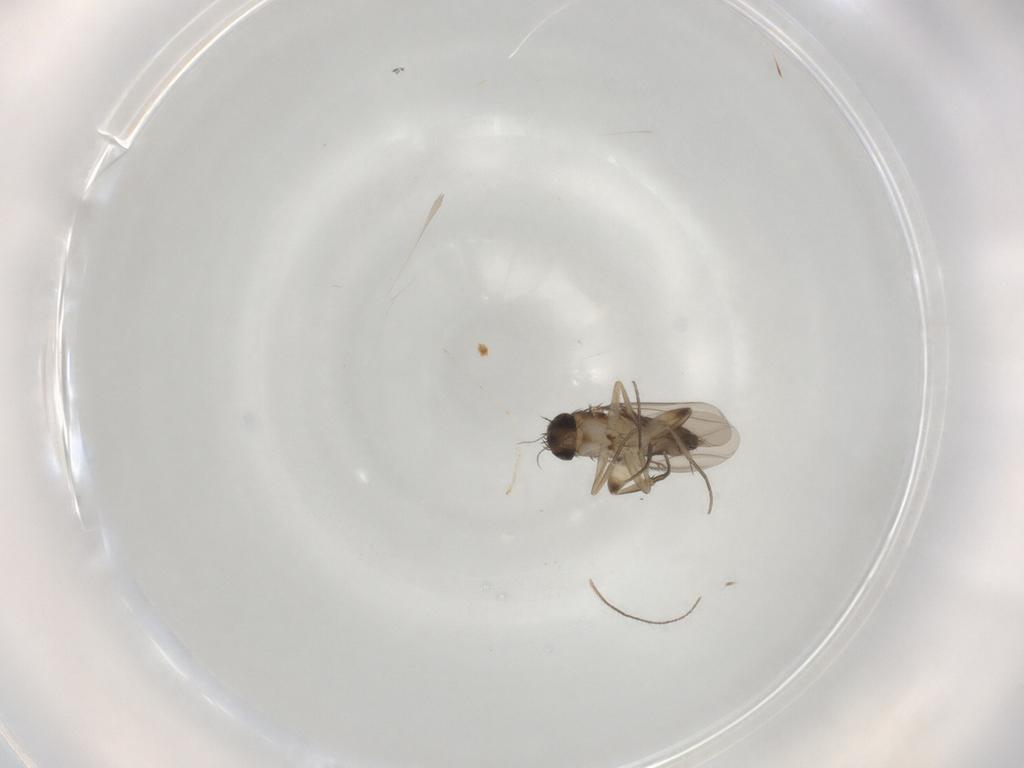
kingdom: Animalia
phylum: Arthropoda
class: Insecta
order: Diptera
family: Phoridae
